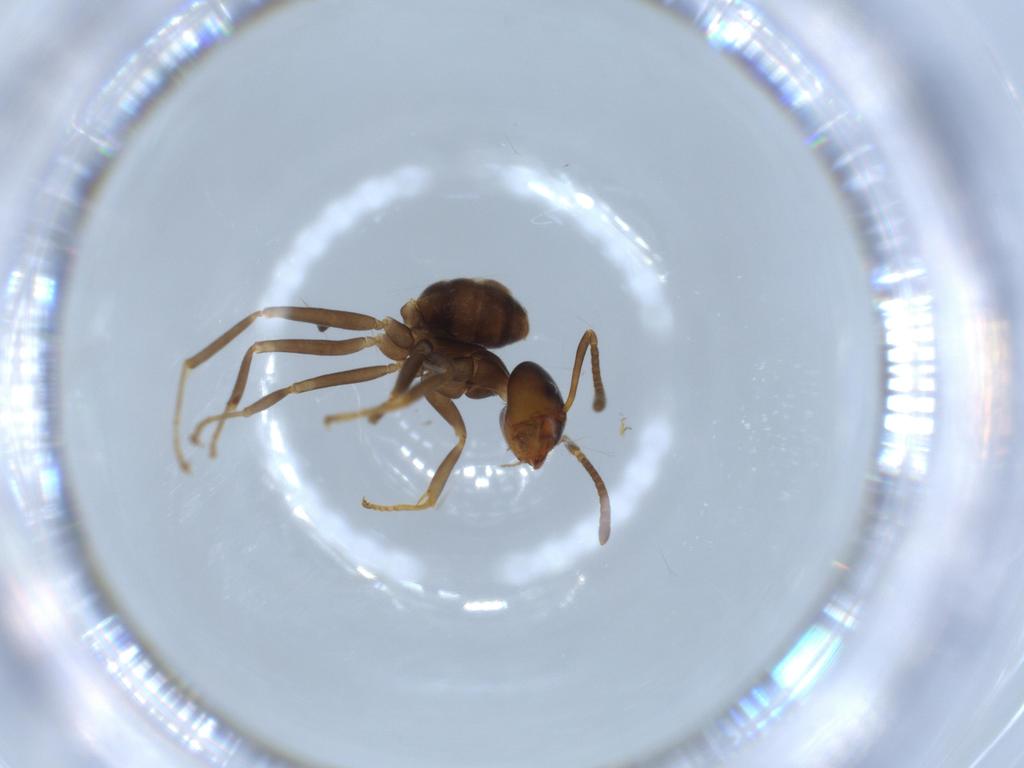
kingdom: Animalia
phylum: Arthropoda
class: Insecta
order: Hymenoptera
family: Formicidae
